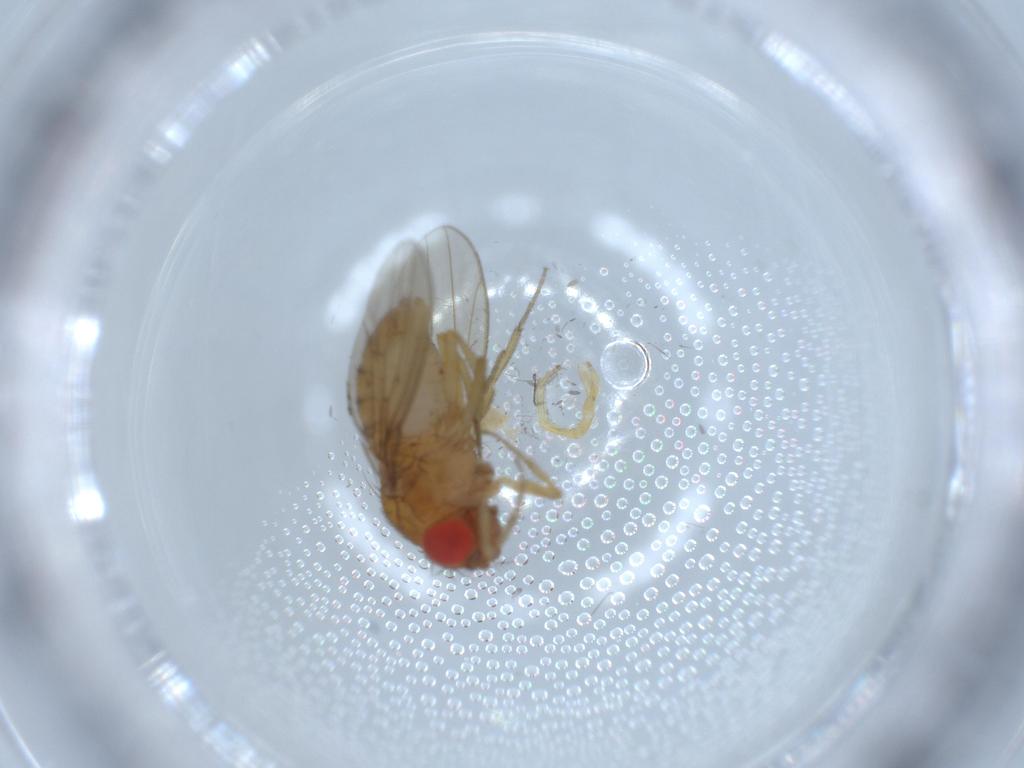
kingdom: Animalia
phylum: Arthropoda
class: Insecta
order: Diptera
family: Drosophilidae
